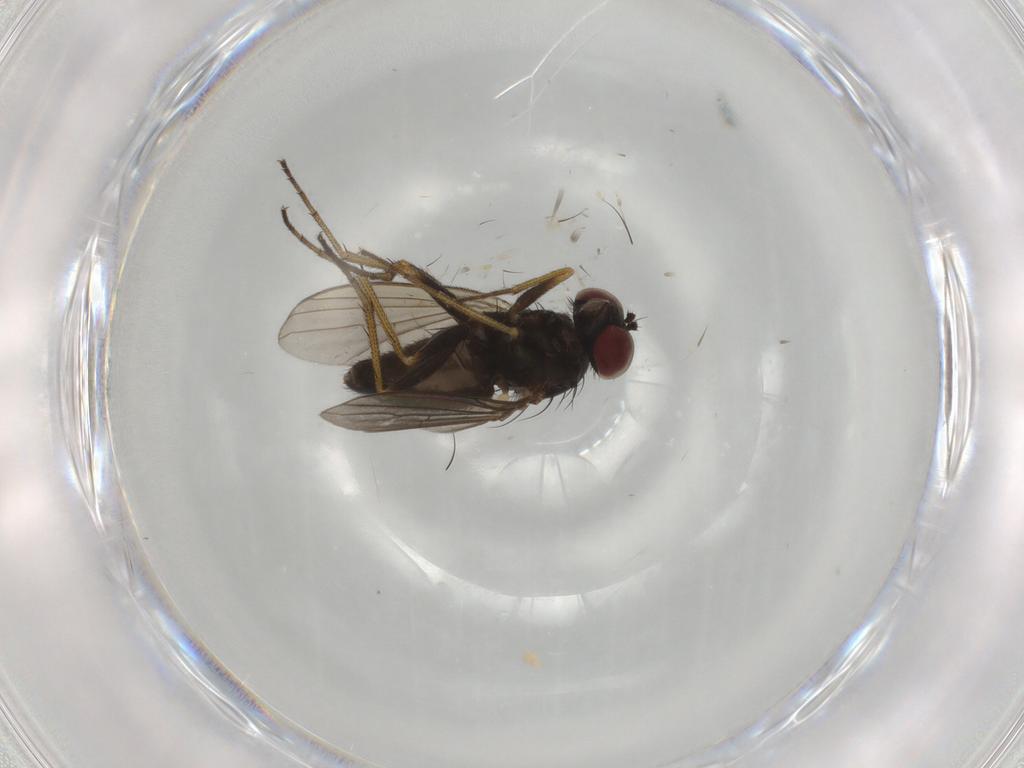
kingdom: Animalia
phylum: Arthropoda
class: Insecta
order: Diptera
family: Dolichopodidae
